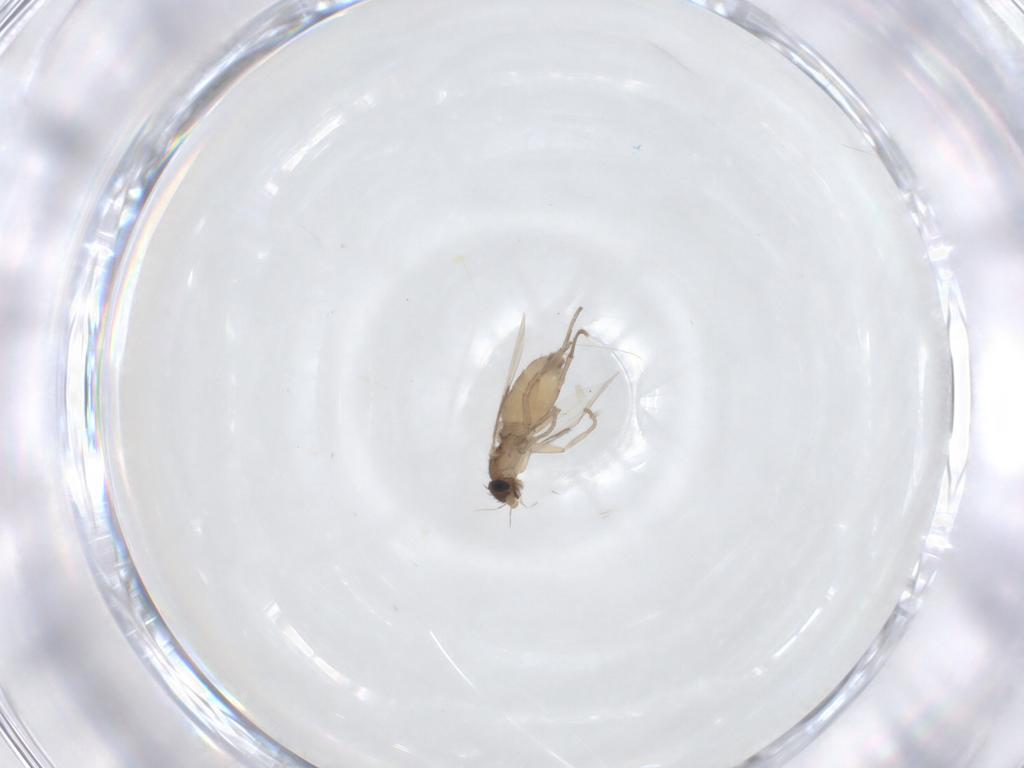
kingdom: Animalia
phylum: Arthropoda
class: Insecta
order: Diptera
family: Phoridae
